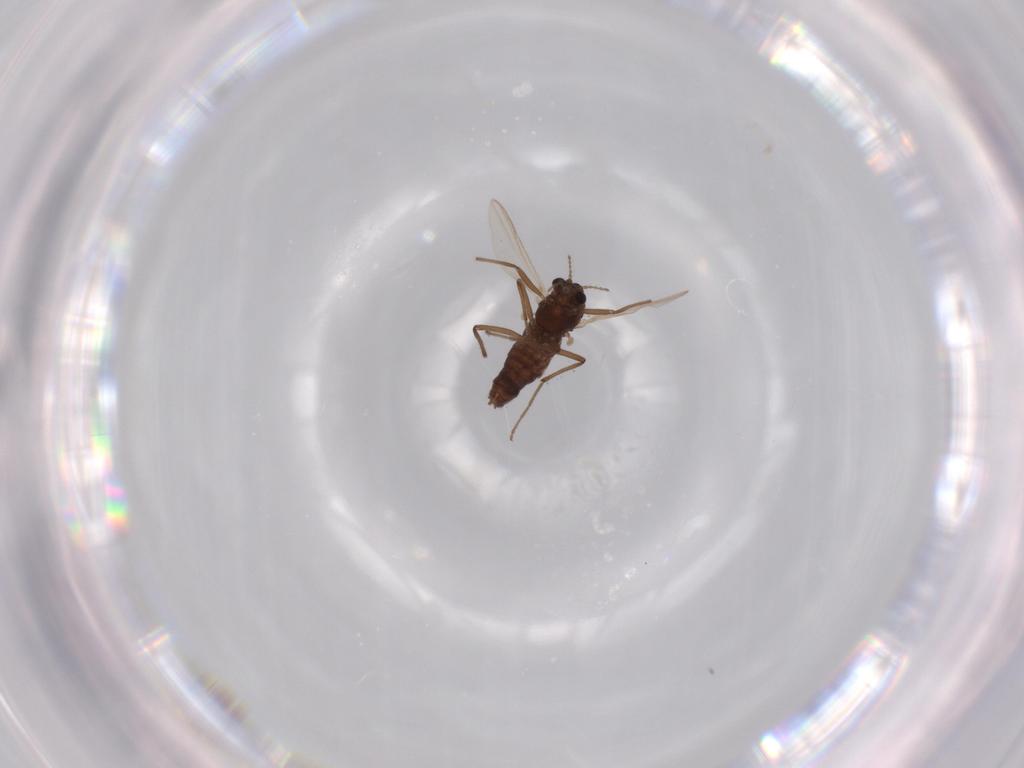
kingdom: Animalia
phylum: Arthropoda
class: Insecta
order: Diptera
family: Chironomidae
